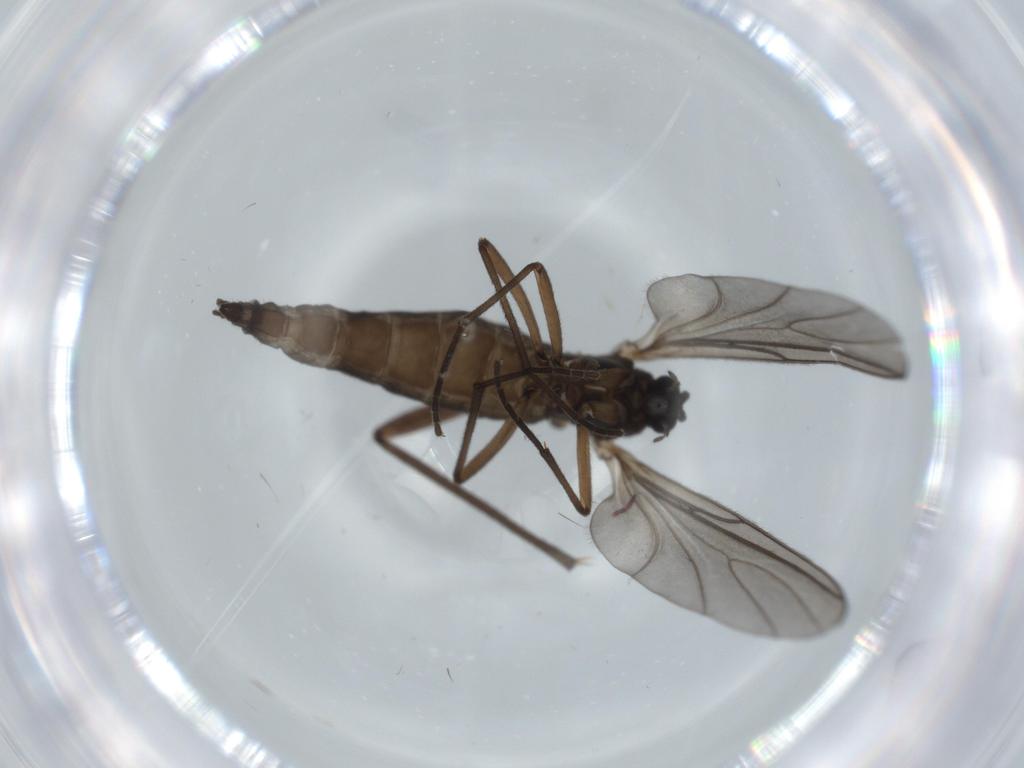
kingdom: Animalia
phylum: Arthropoda
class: Insecta
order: Diptera
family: Sciaridae
